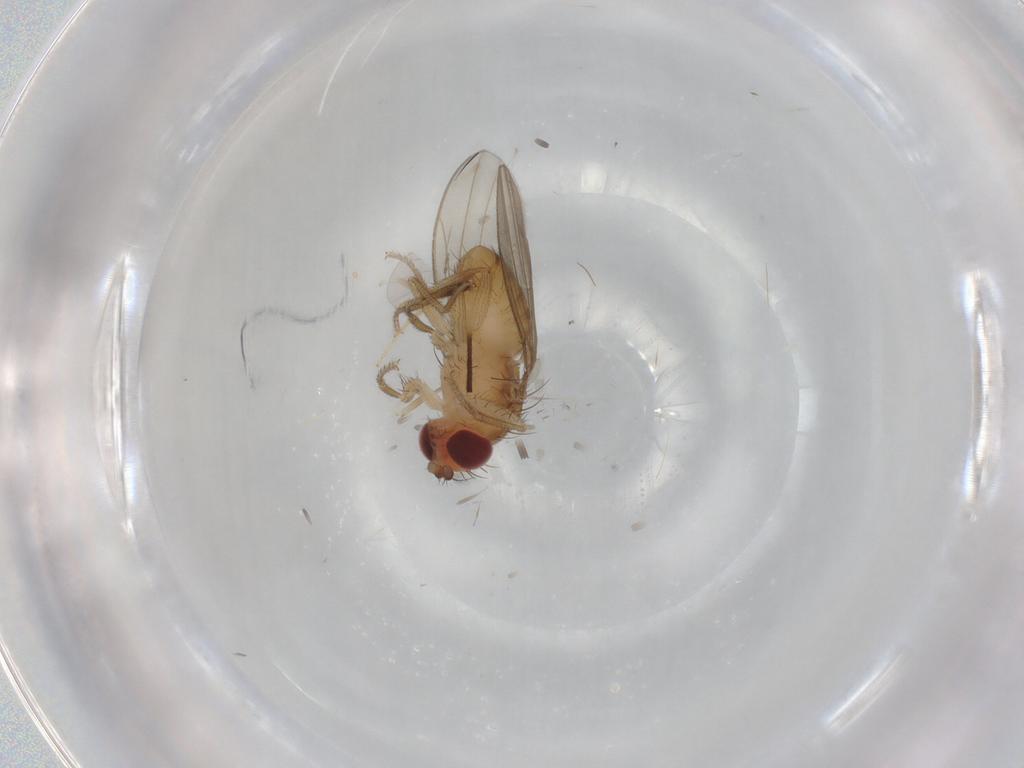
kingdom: Animalia
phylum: Arthropoda
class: Insecta
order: Diptera
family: Drosophilidae
